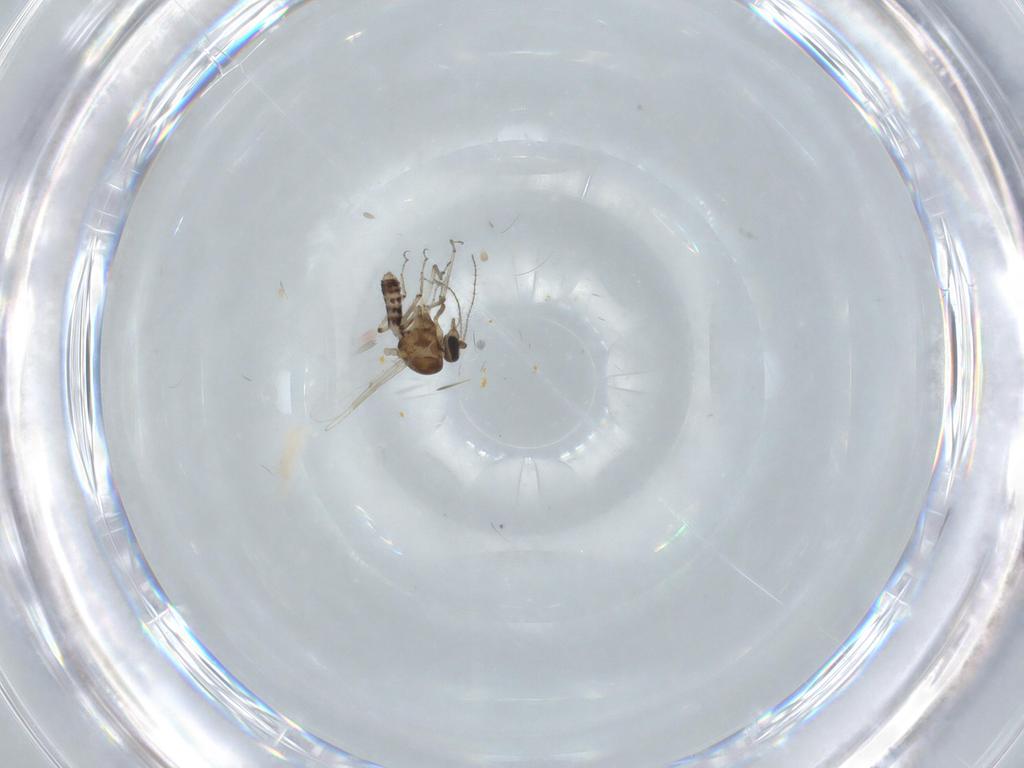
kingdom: Animalia
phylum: Arthropoda
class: Insecta
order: Diptera
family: Ceratopogonidae
